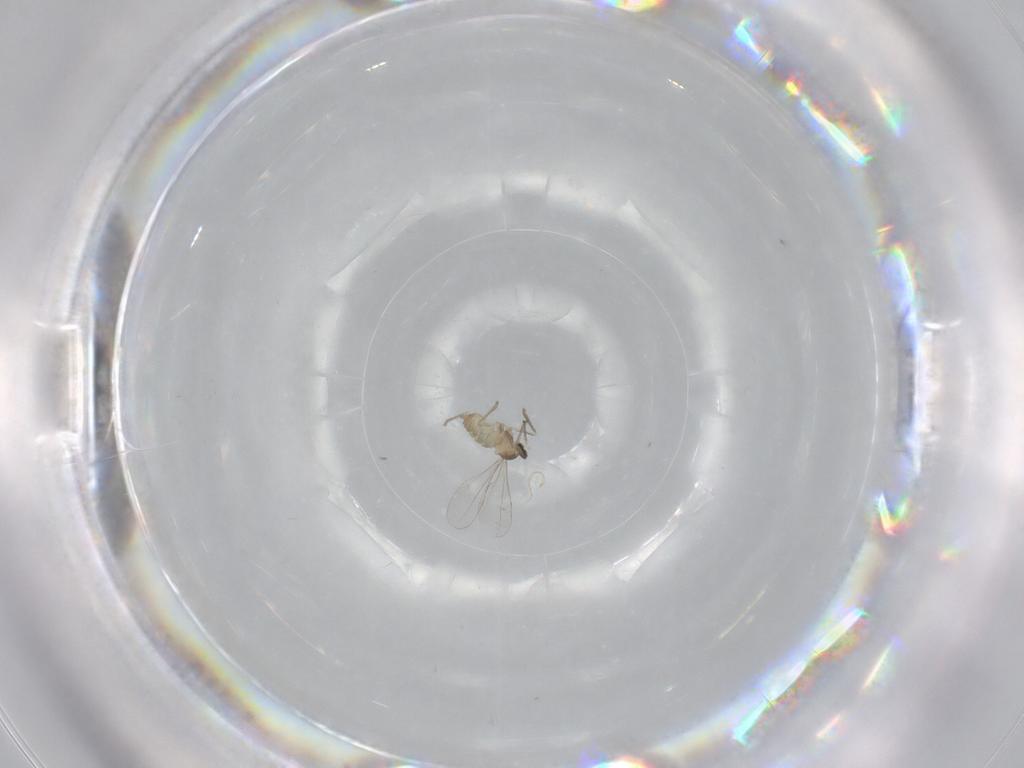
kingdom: Animalia
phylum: Arthropoda
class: Insecta
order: Diptera
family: Cecidomyiidae
